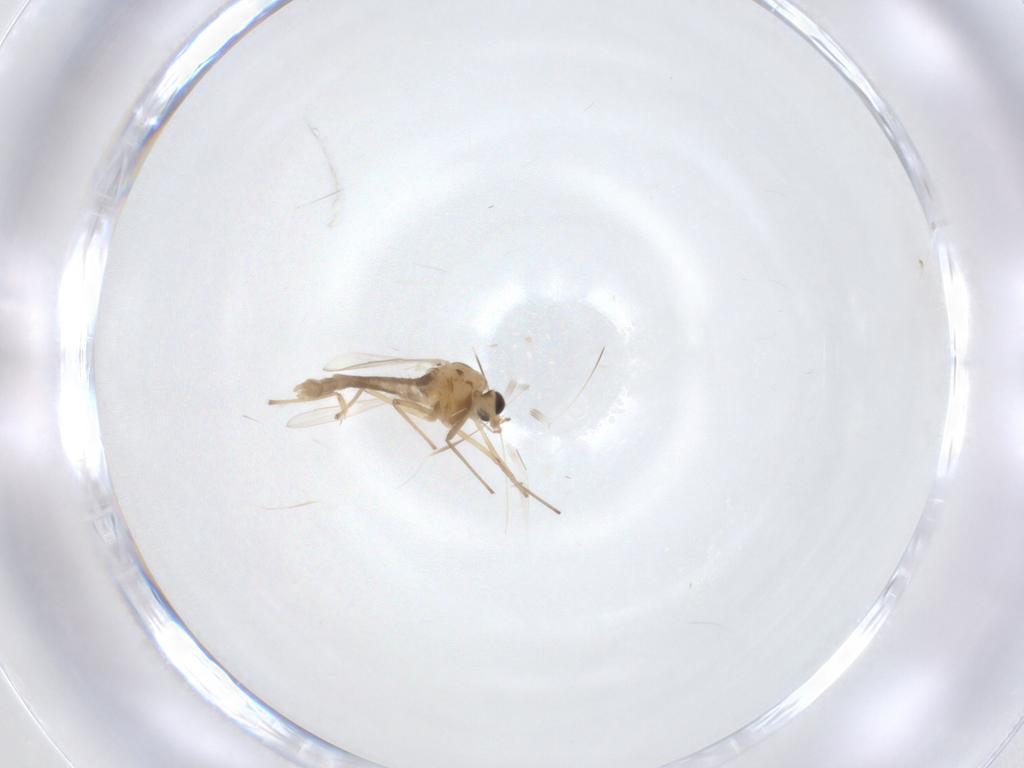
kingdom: Animalia
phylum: Arthropoda
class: Insecta
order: Diptera
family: Chironomidae
